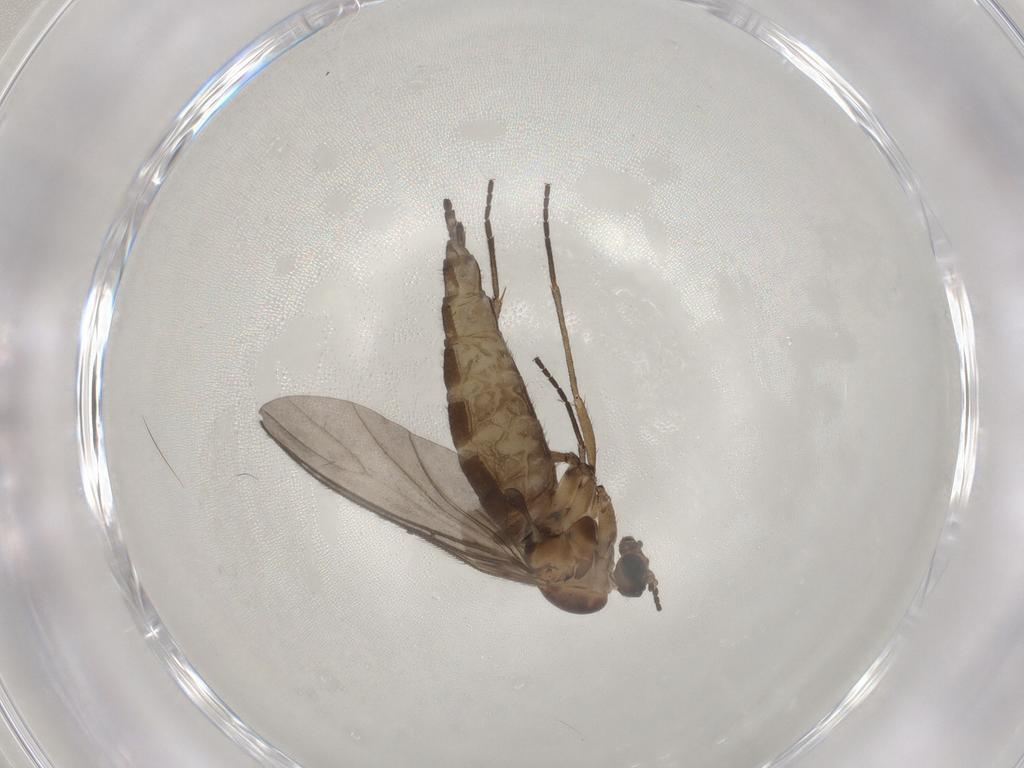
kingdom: Animalia
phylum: Arthropoda
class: Insecta
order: Diptera
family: Sciaridae
